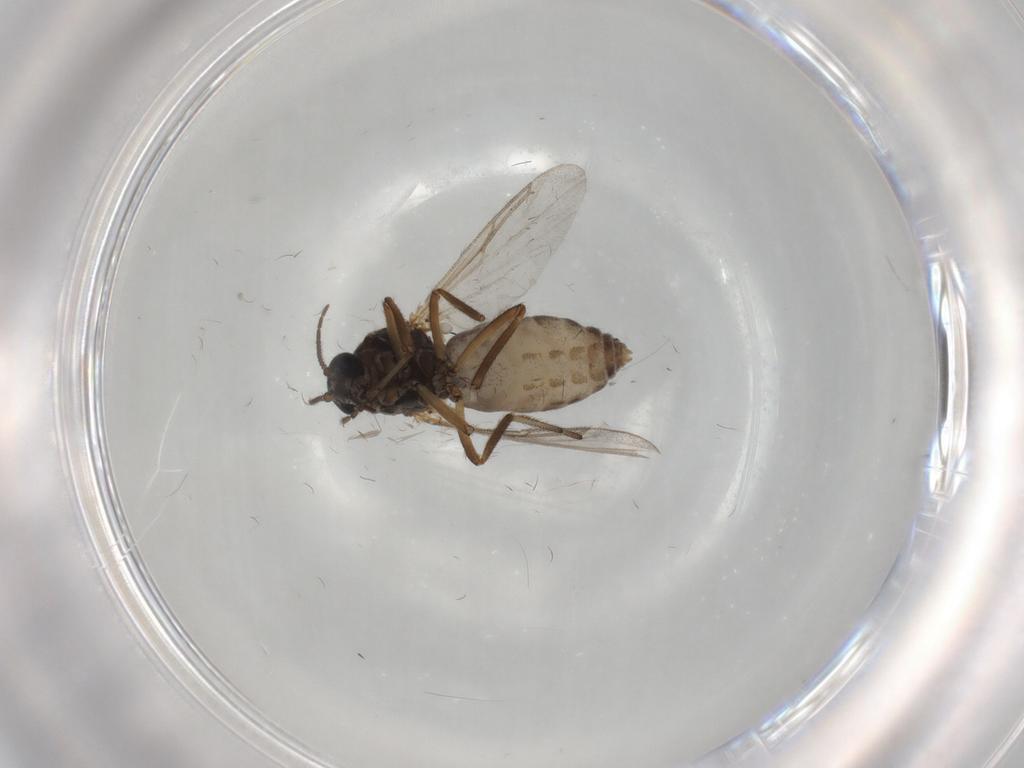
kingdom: Animalia
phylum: Arthropoda
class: Insecta
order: Diptera
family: Ceratopogonidae
